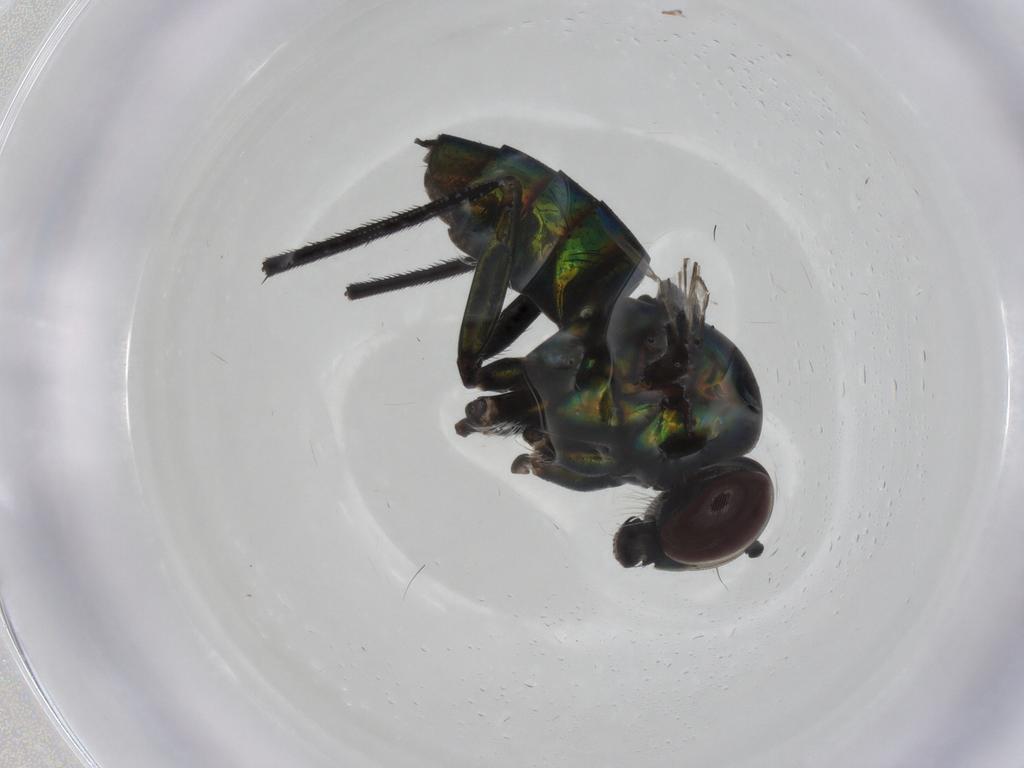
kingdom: Animalia
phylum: Arthropoda
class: Insecta
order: Diptera
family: Dolichopodidae
